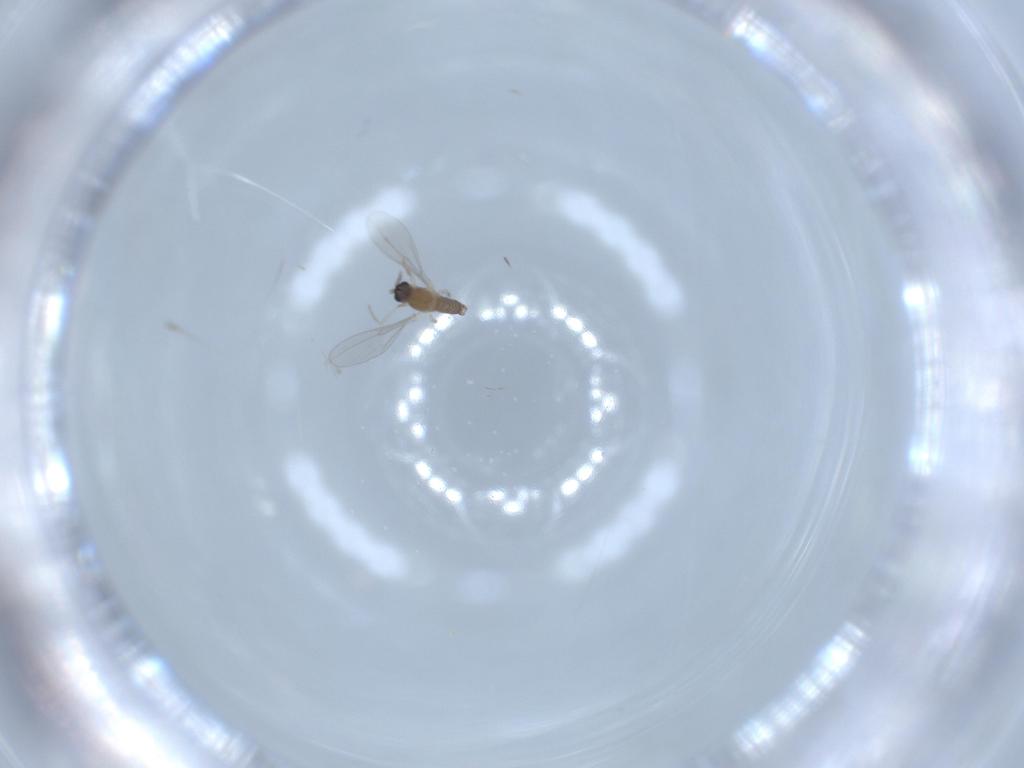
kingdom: Animalia
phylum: Arthropoda
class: Insecta
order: Diptera
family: Cecidomyiidae
